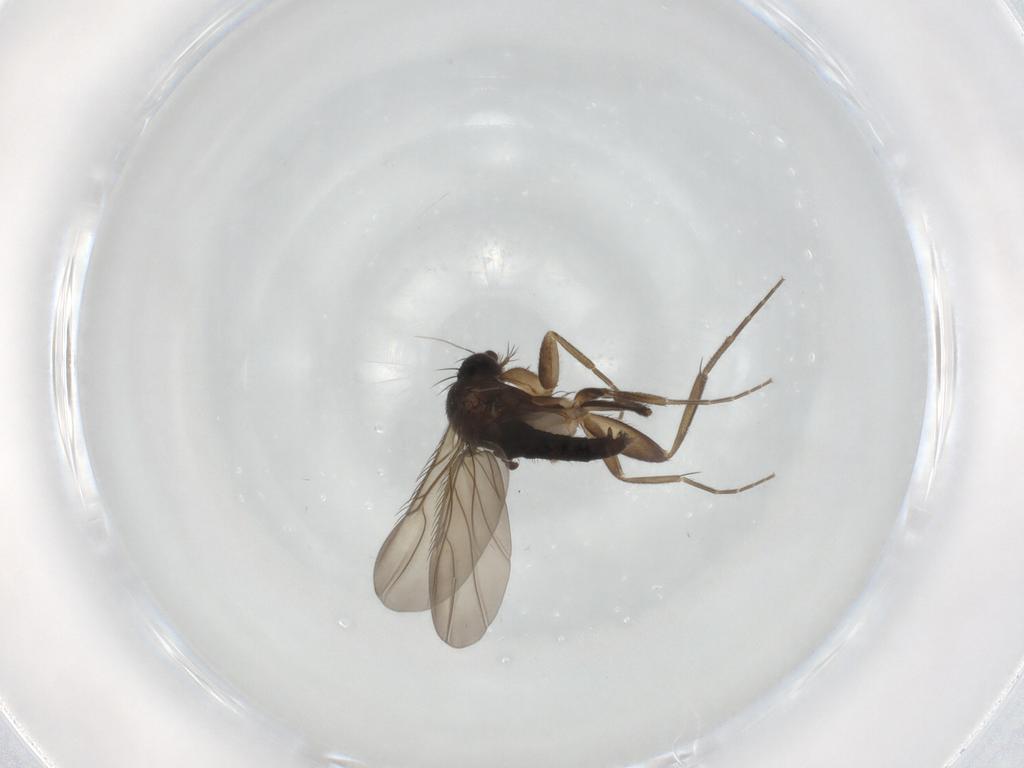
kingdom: Animalia
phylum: Arthropoda
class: Insecta
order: Diptera
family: Phoridae
